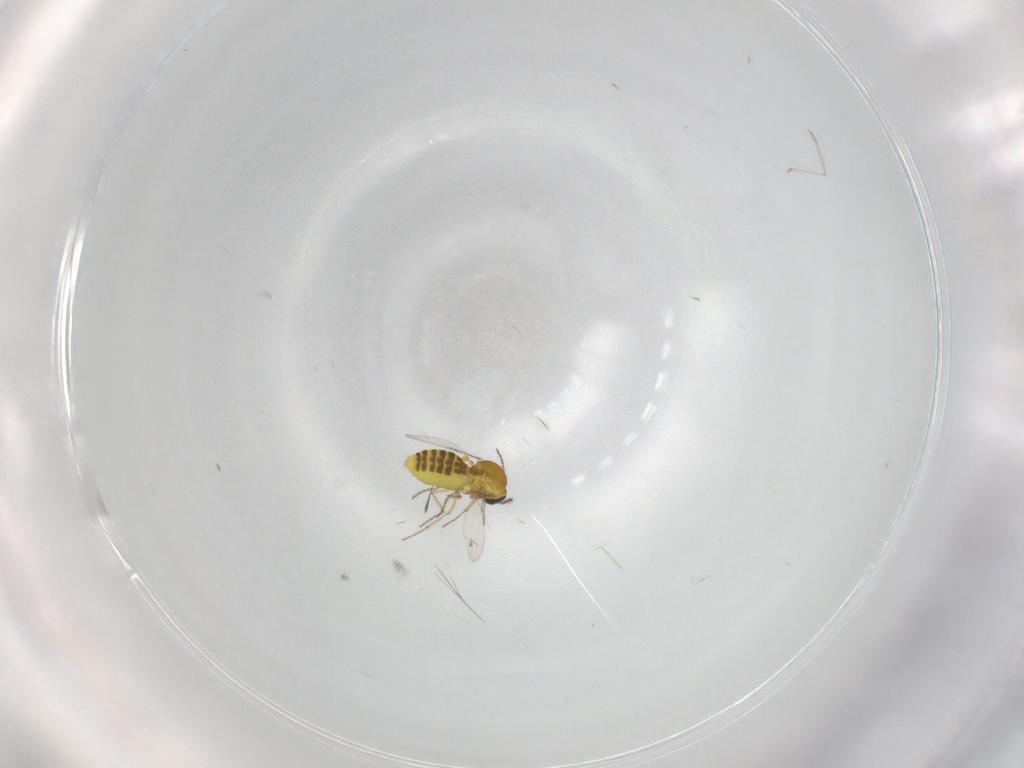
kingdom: Animalia
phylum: Arthropoda
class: Insecta
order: Diptera
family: Ceratopogonidae
